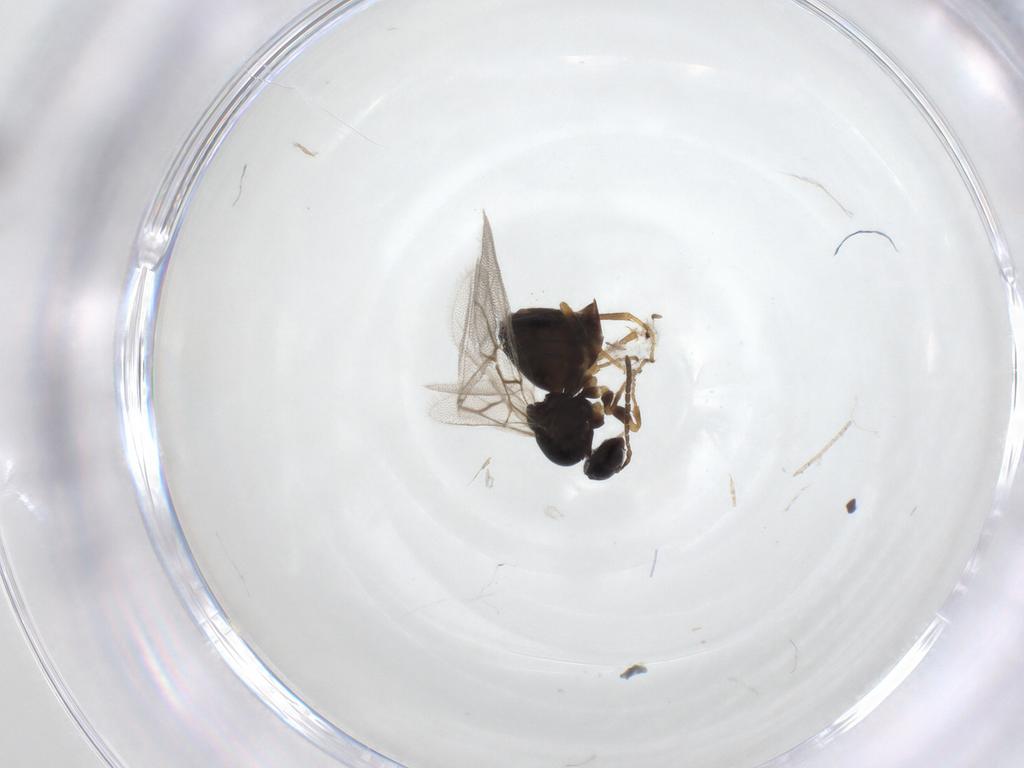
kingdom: Animalia
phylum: Arthropoda
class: Insecta
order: Hymenoptera
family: Cynipidae
